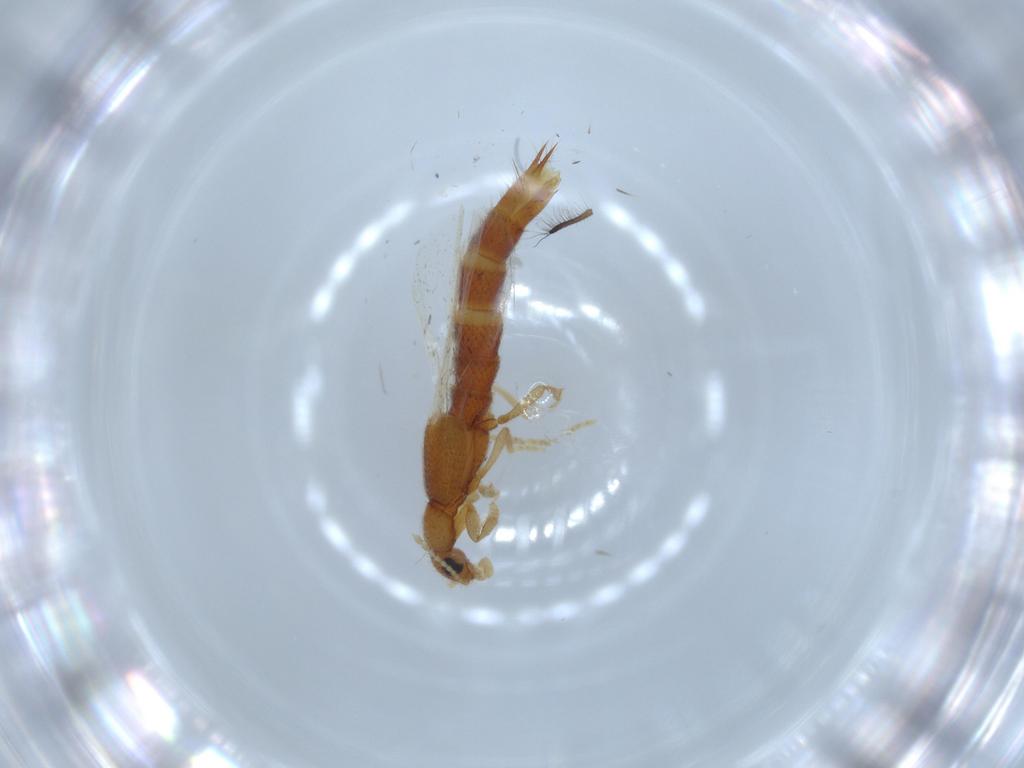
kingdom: Animalia
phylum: Arthropoda
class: Insecta
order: Coleoptera
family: Staphylinidae
